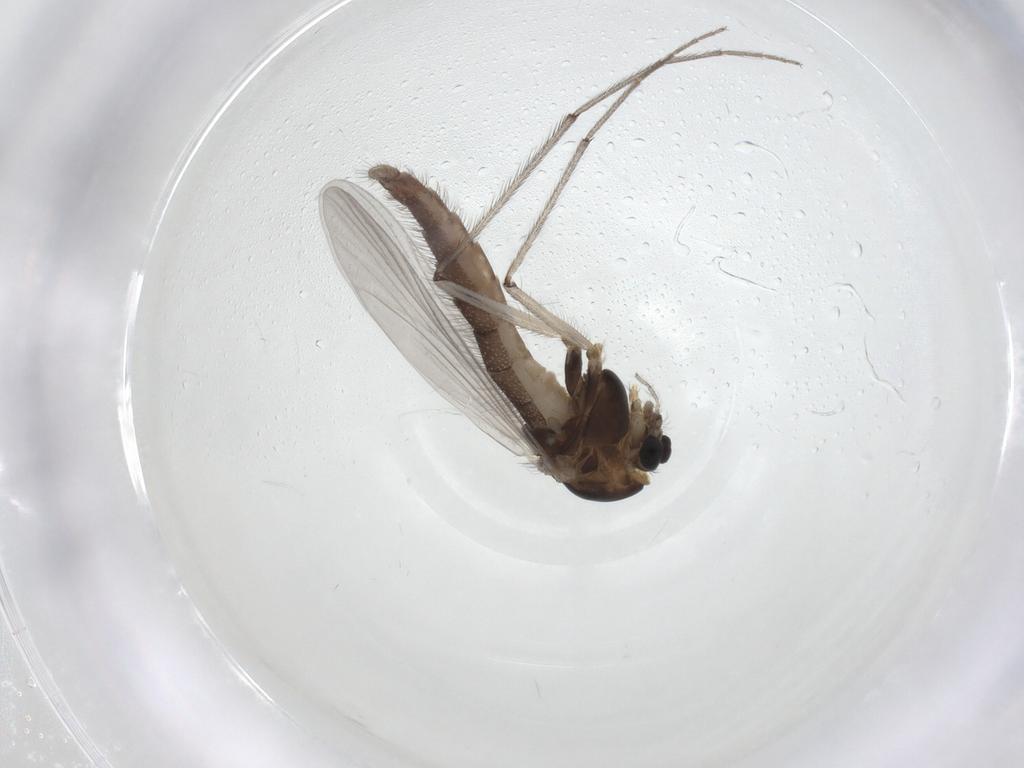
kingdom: Animalia
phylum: Arthropoda
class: Insecta
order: Diptera
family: Chironomidae
